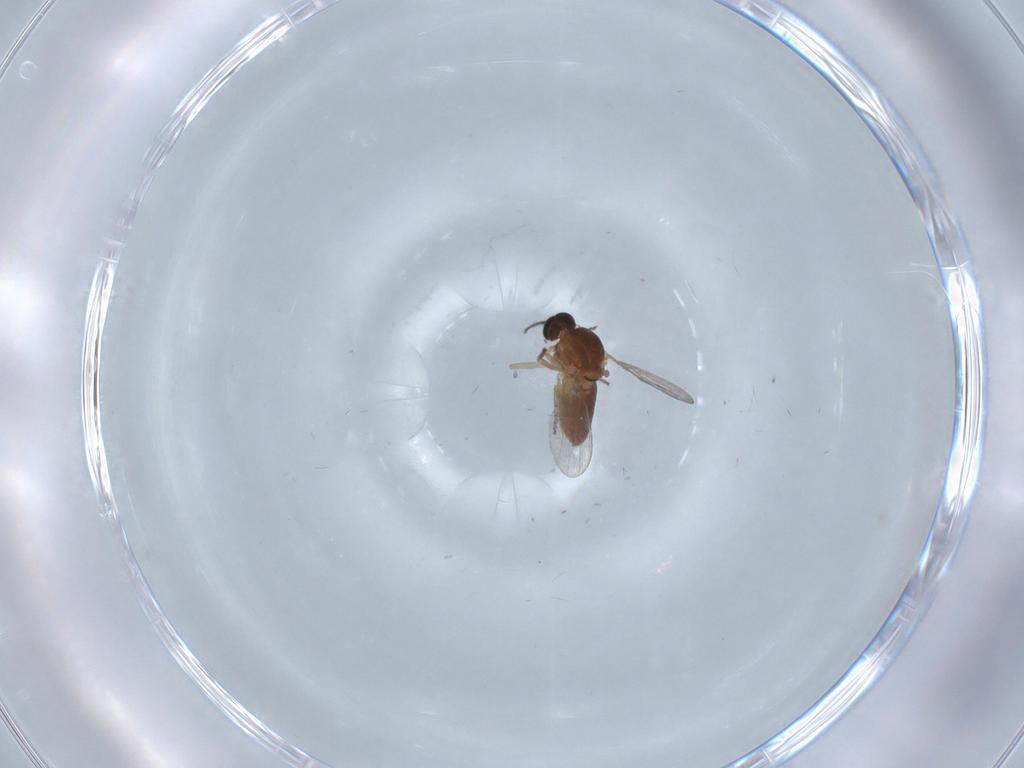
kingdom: Animalia
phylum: Arthropoda
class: Insecta
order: Diptera
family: Ceratopogonidae
